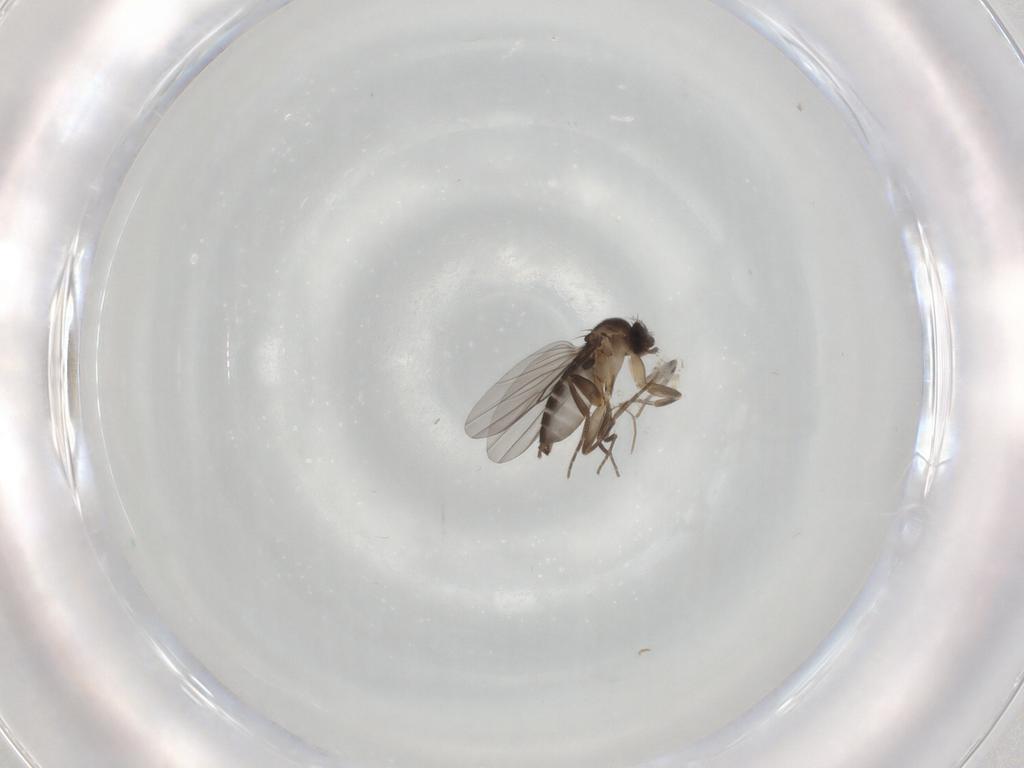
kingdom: Animalia
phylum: Arthropoda
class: Insecta
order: Diptera
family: Phoridae
